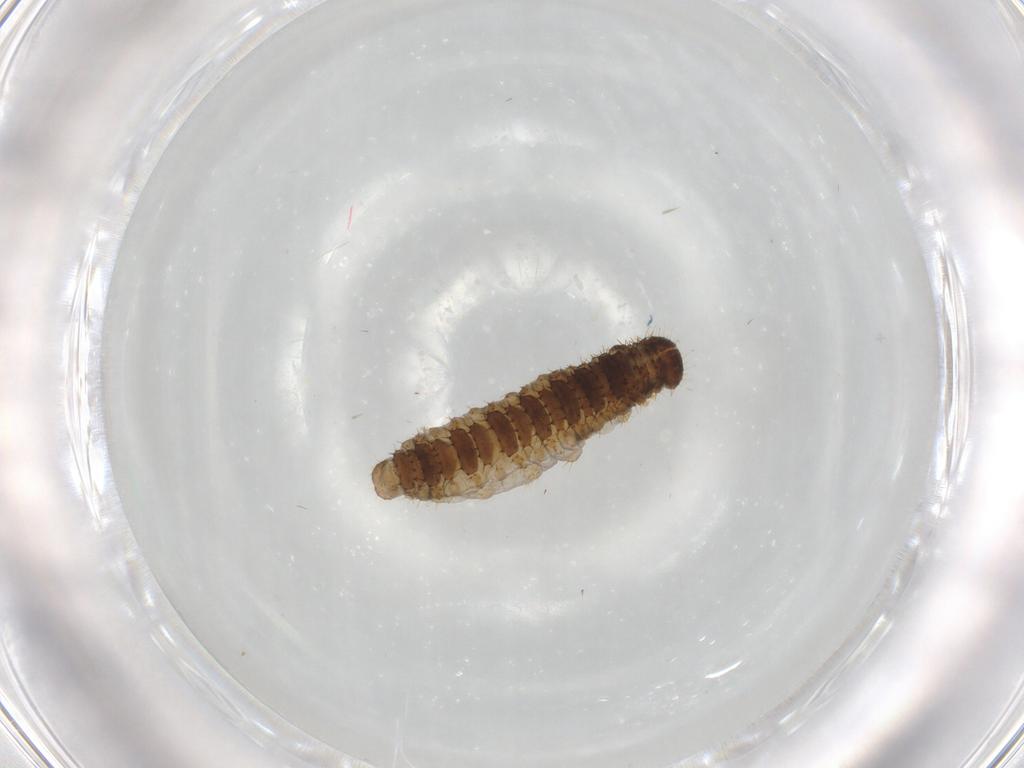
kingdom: Animalia
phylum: Arthropoda
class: Insecta
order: Coleoptera
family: Chrysomelidae
